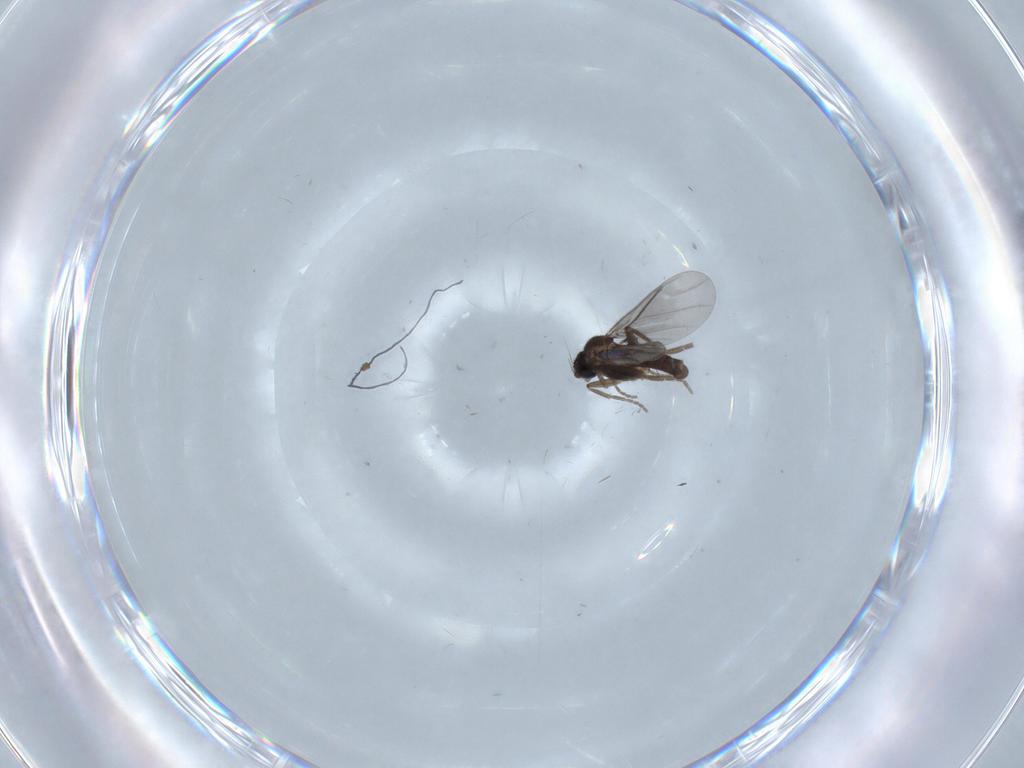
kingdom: Animalia
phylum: Arthropoda
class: Insecta
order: Diptera
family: Phoridae
